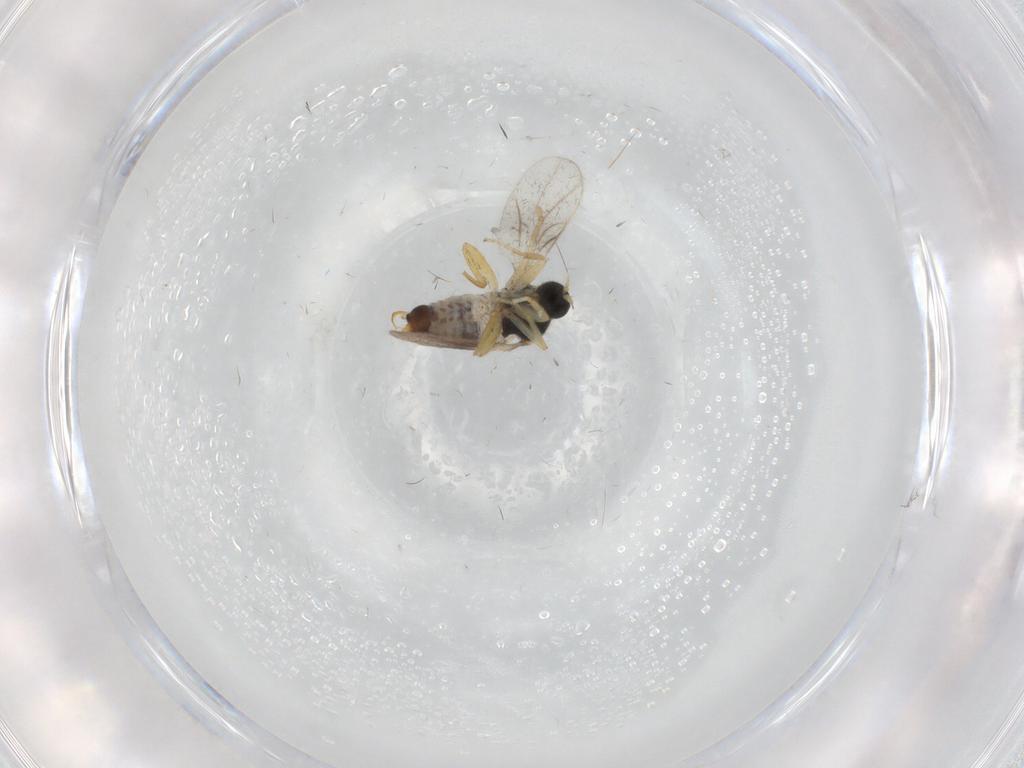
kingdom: Animalia
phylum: Arthropoda
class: Insecta
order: Diptera
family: Hybotidae
